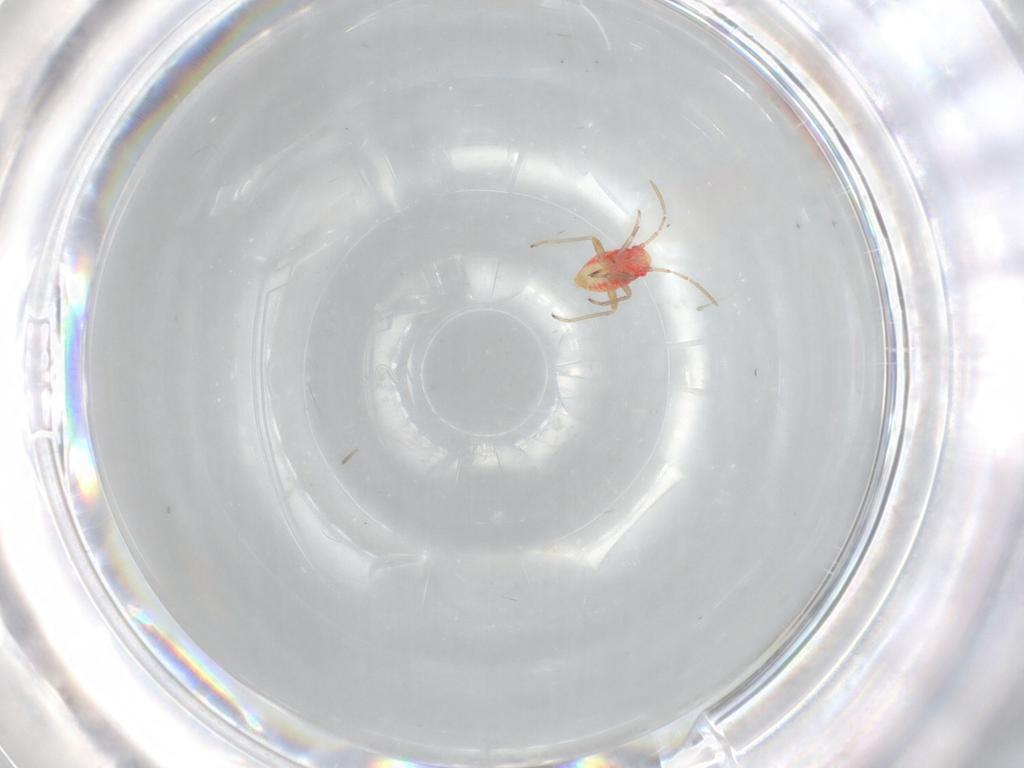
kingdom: Animalia
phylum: Arthropoda
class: Insecta
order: Hemiptera
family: Miridae
